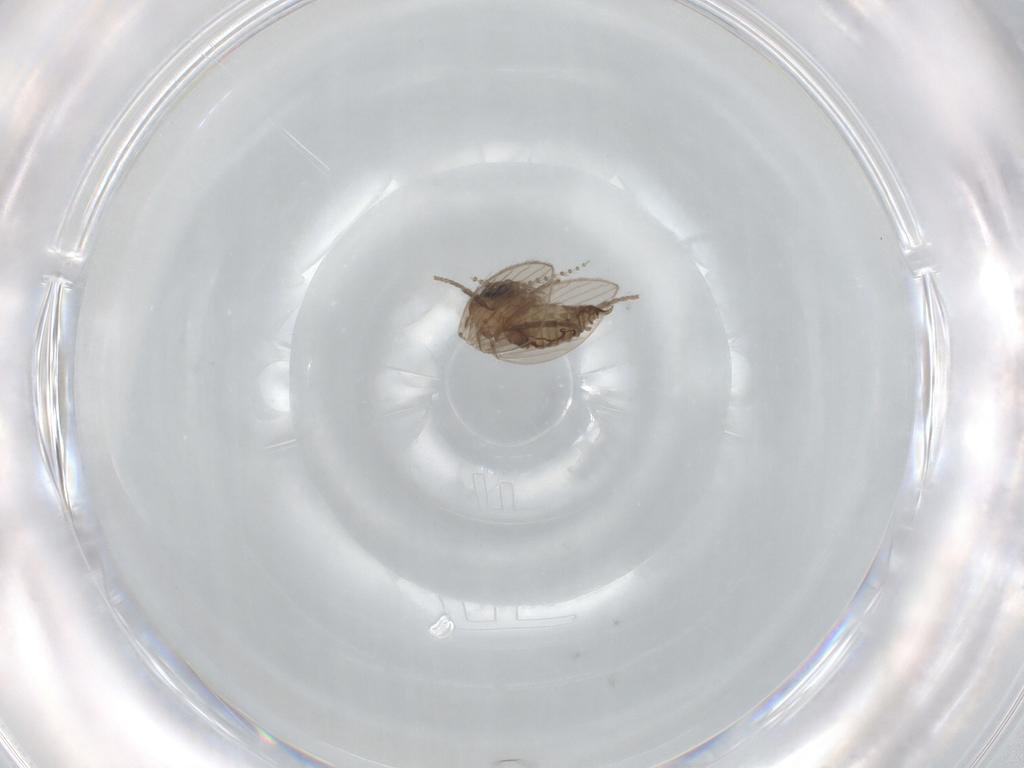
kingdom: Animalia
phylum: Arthropoda
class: Insecta
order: Diptera
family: Psychodidae
